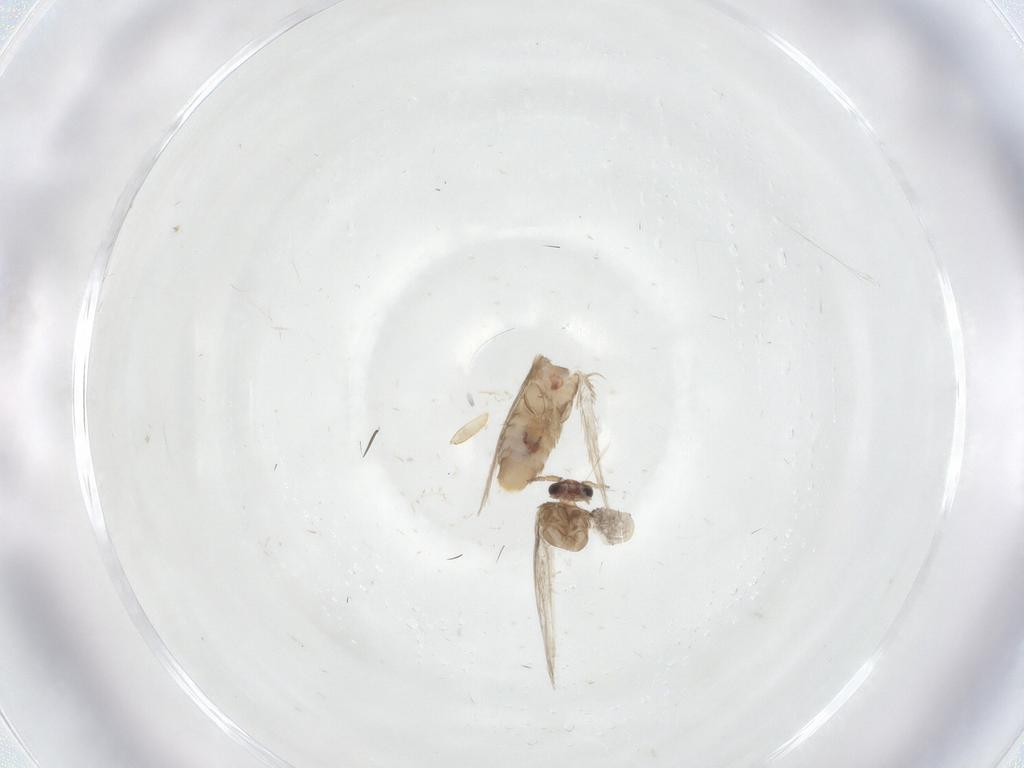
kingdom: Animalia
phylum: Arthropoda
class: Insecta
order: Lepidoptera
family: Nepticulidae
